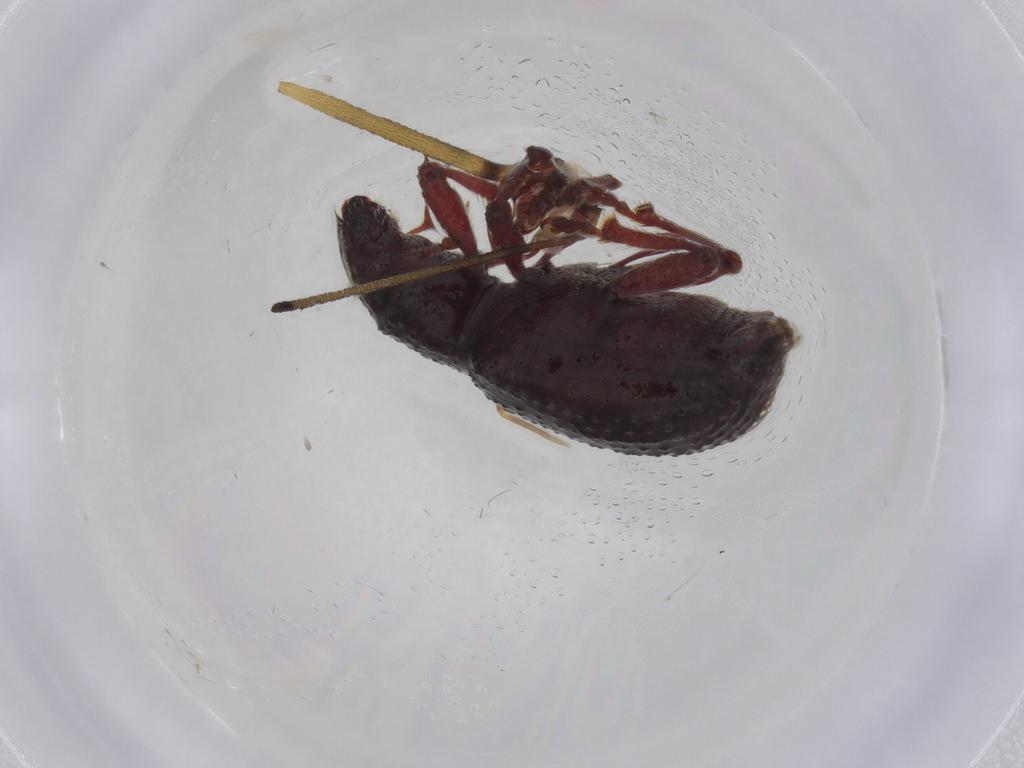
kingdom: Animalia
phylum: Arthropoda
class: Insecta
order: Coleoptera
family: Curculionidae
